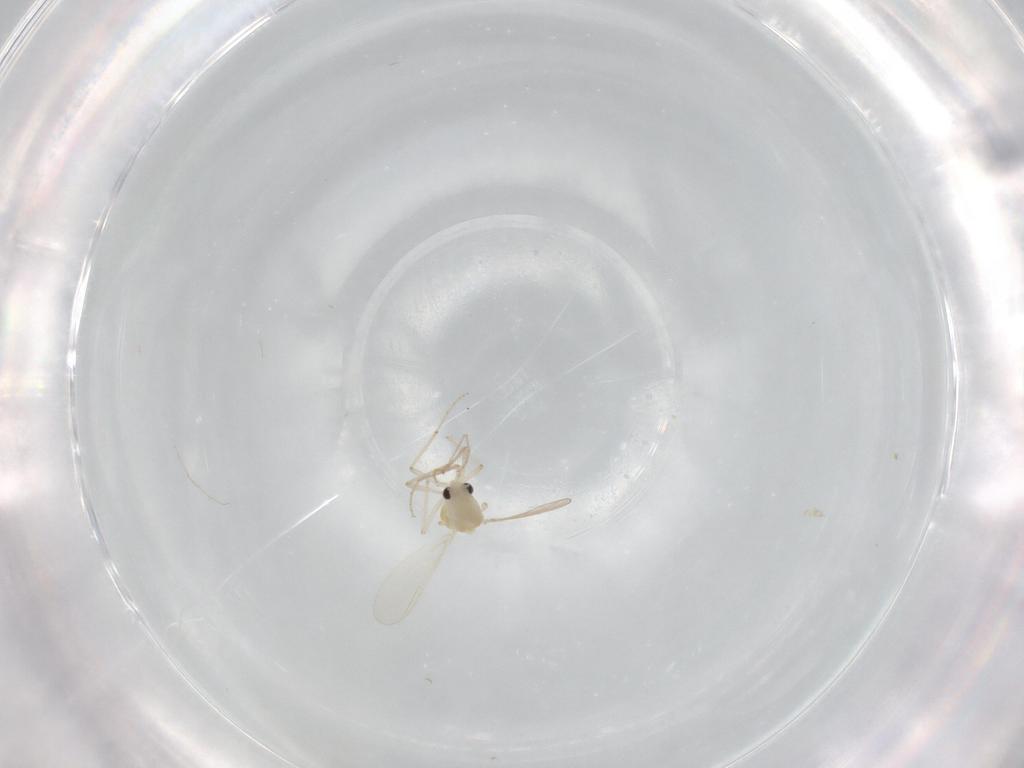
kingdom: Animalia
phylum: Arthropoda
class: Insecta
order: Diptera
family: Chironomidae
